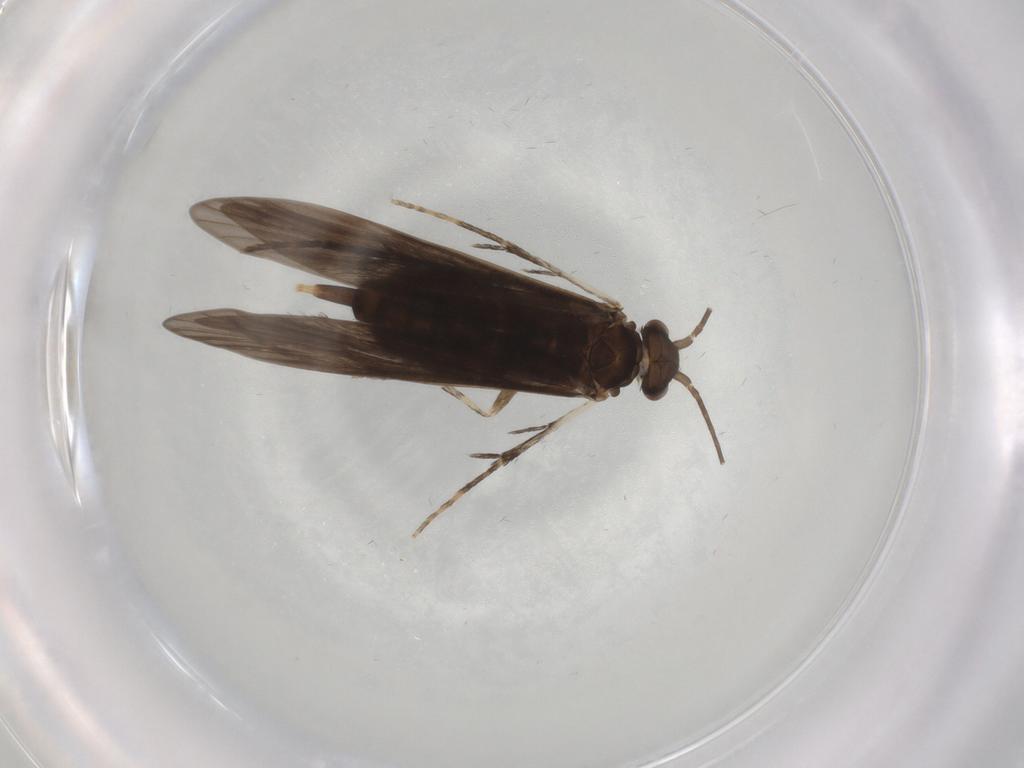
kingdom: Animalia
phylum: Arthropoda
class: Insecta
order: Trichoptera
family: Xiphocentronidae
